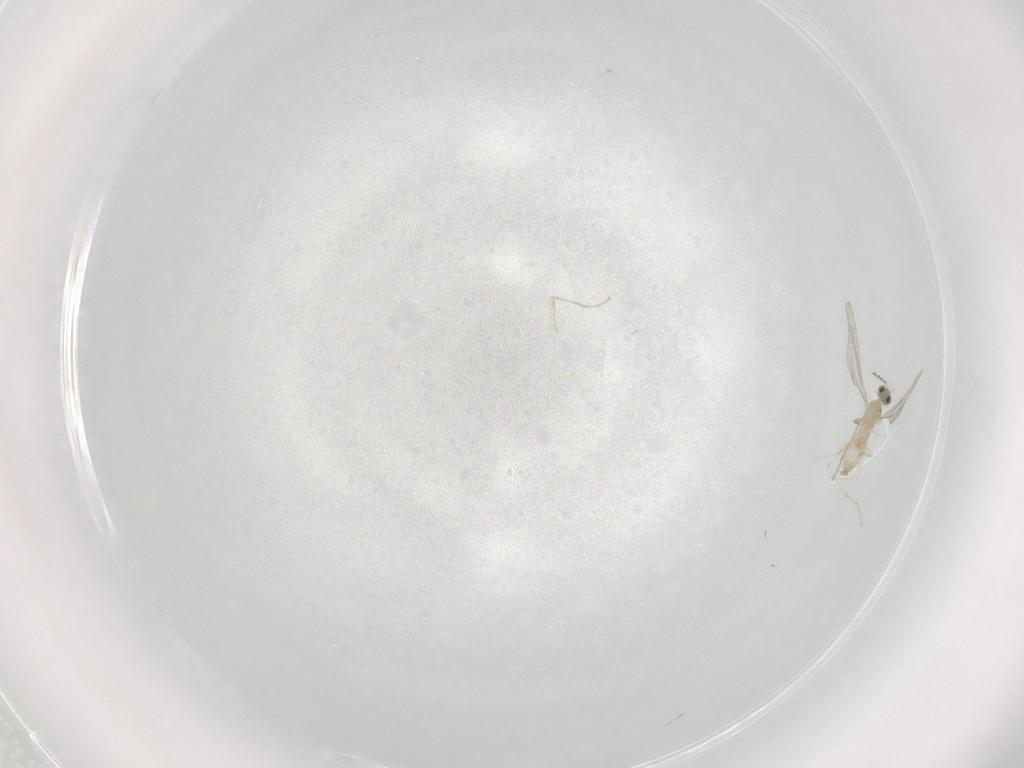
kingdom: Animalia
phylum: Arthropoda
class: Insecta
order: Diptera
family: Cecidomyiidae
